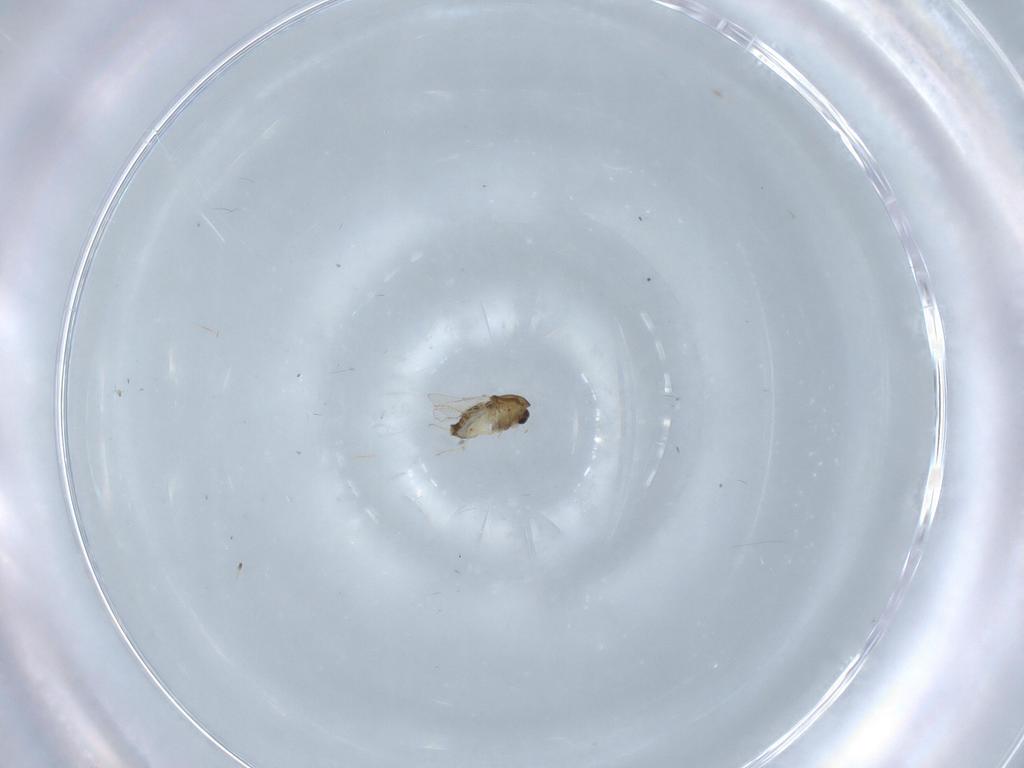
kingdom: Animalia
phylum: Arthropoda
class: Insecta
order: Diptera
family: Chironomidae
